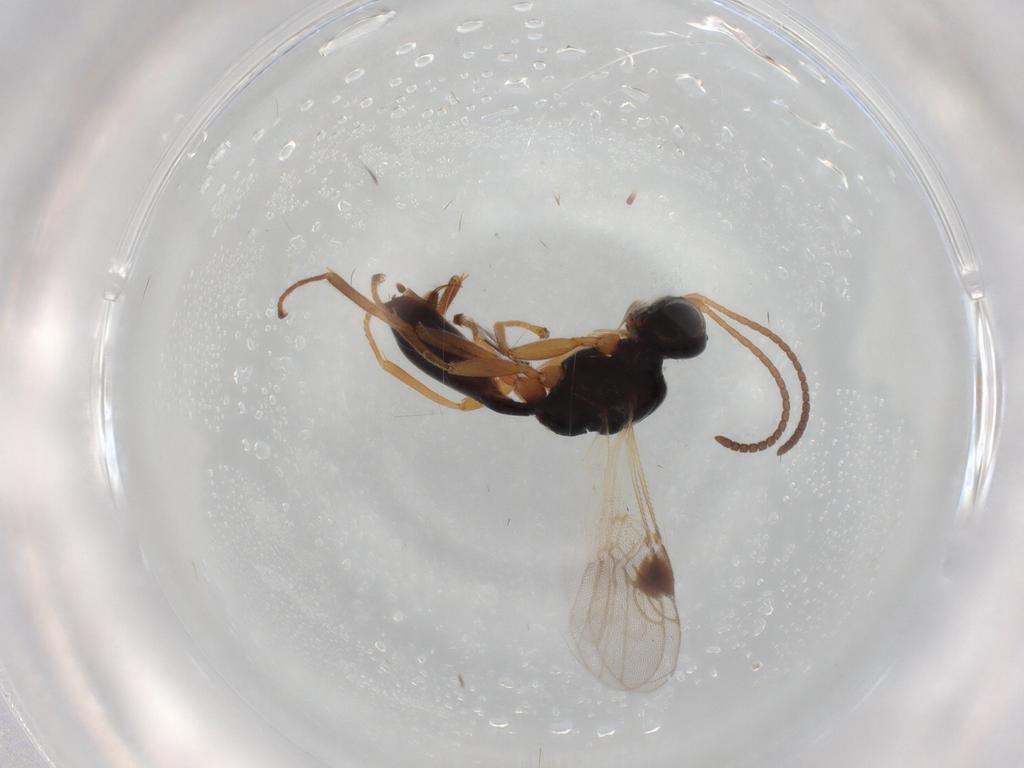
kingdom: Animalia
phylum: Arthropoda
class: Insecta
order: Hymenoptera
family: Braconidae
